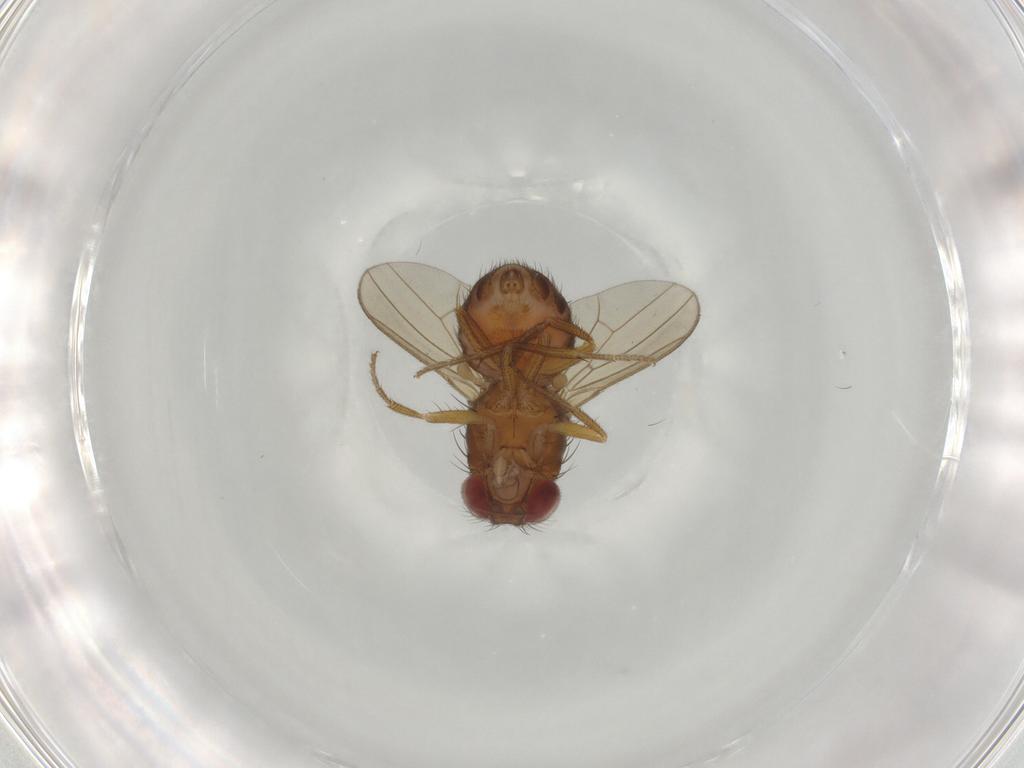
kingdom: Animalia
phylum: Arthropoda
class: Insecta
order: Diptera
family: Drosophilidae
